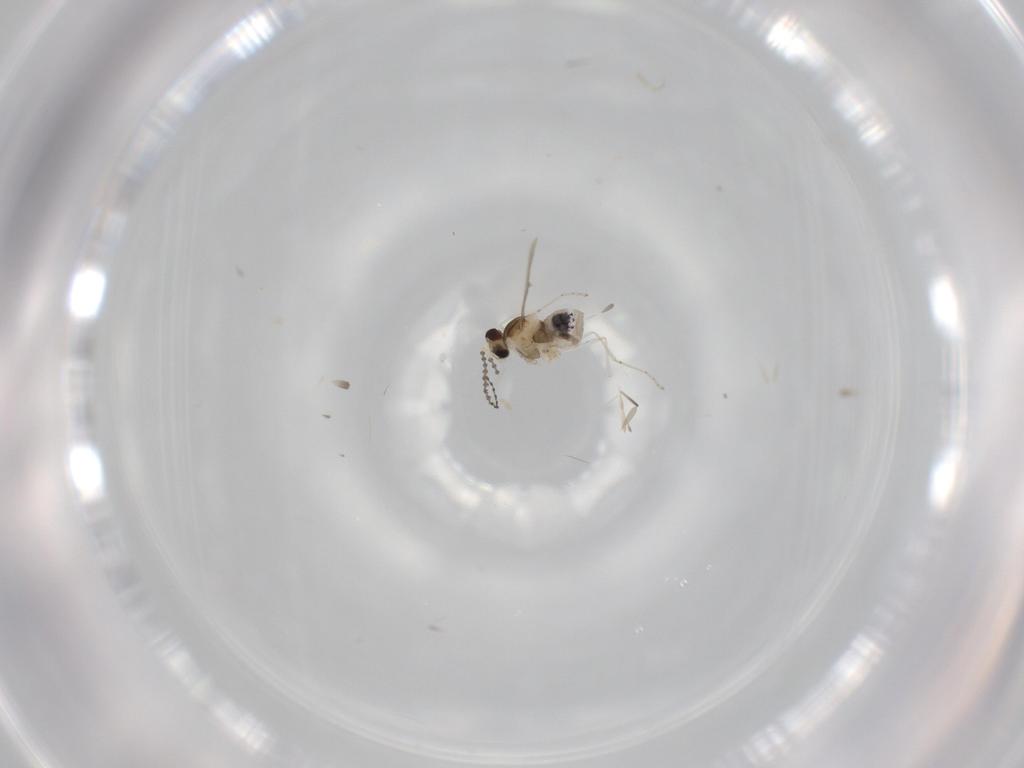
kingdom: Animalia
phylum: Arthropoda
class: Insecta
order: Diptera
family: Cecidomyiidae
